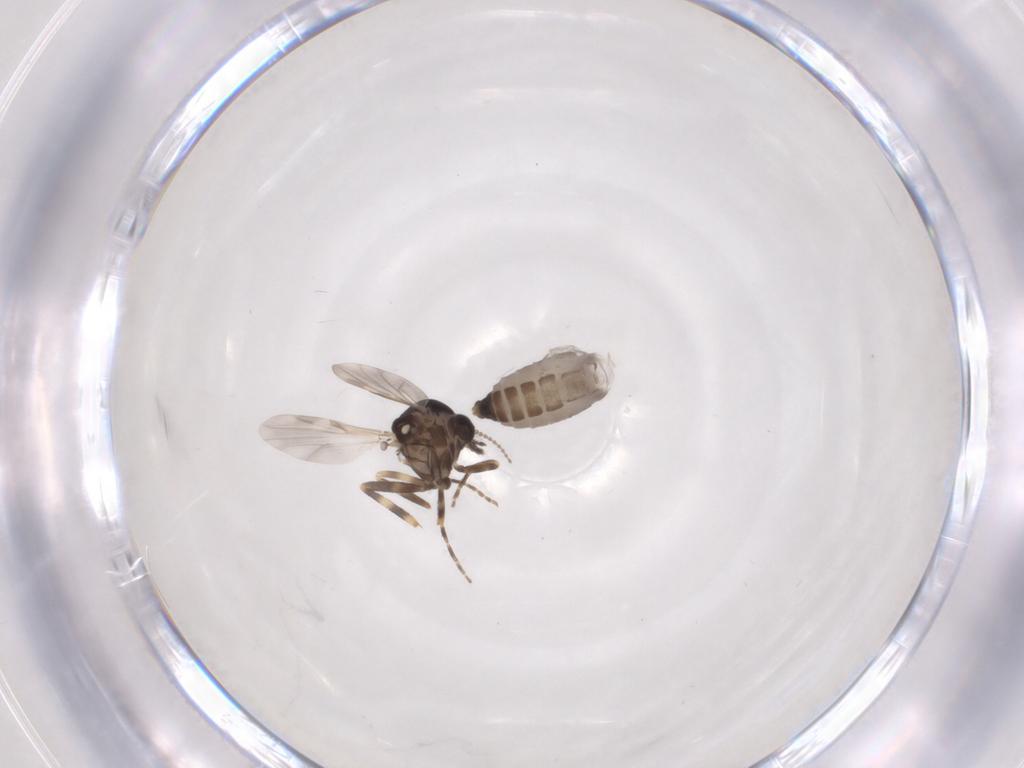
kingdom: Animalia
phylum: Arthropoda
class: Insecta
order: Diptera
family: Ceratopogonidae
